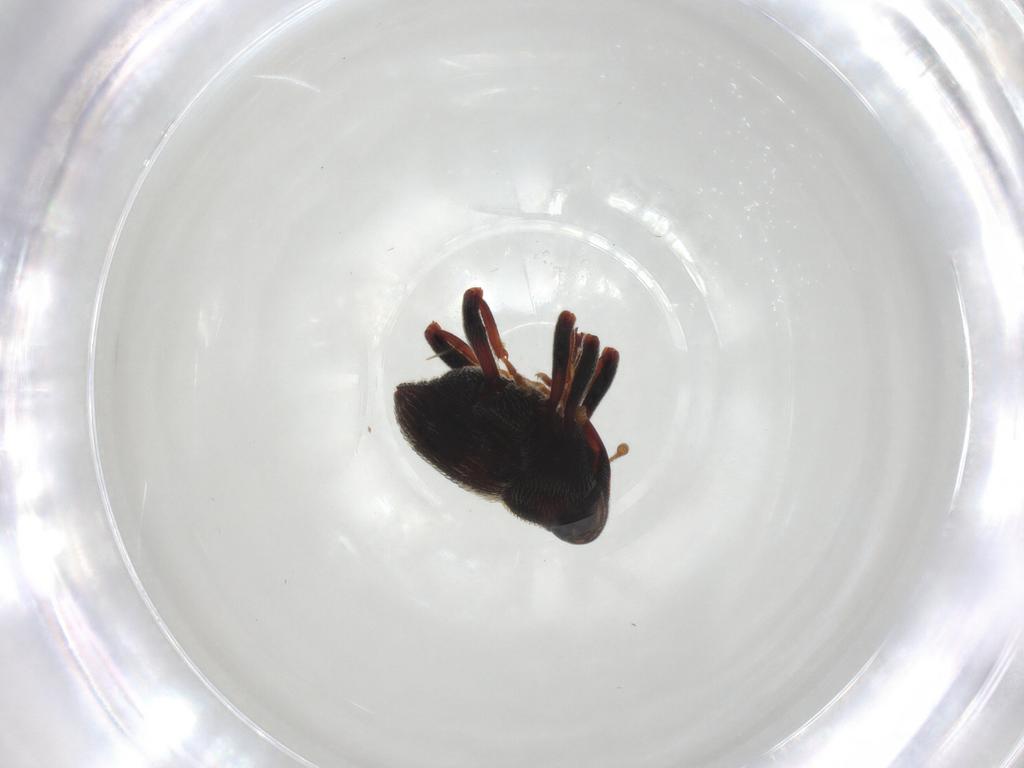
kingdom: Animalia
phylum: Arthropoda
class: Insecta
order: Coleoptera
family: Curculionidae
